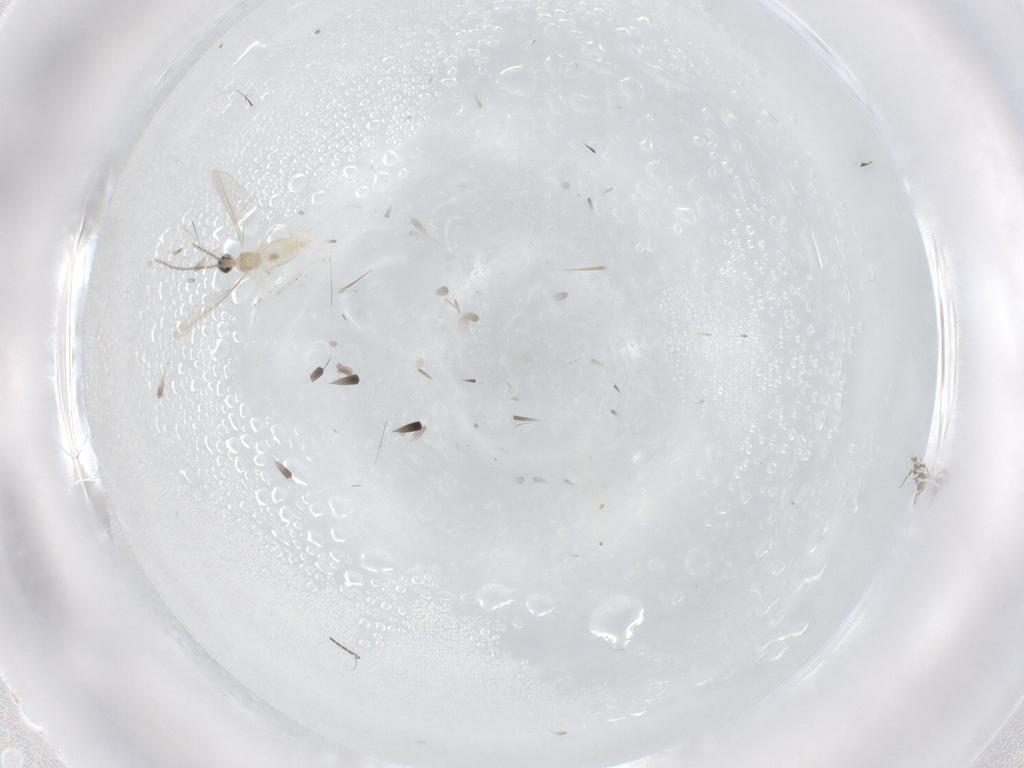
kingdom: Animalia
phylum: Arthropoda
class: Insecta
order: Diptera
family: Cecidomyiidae
